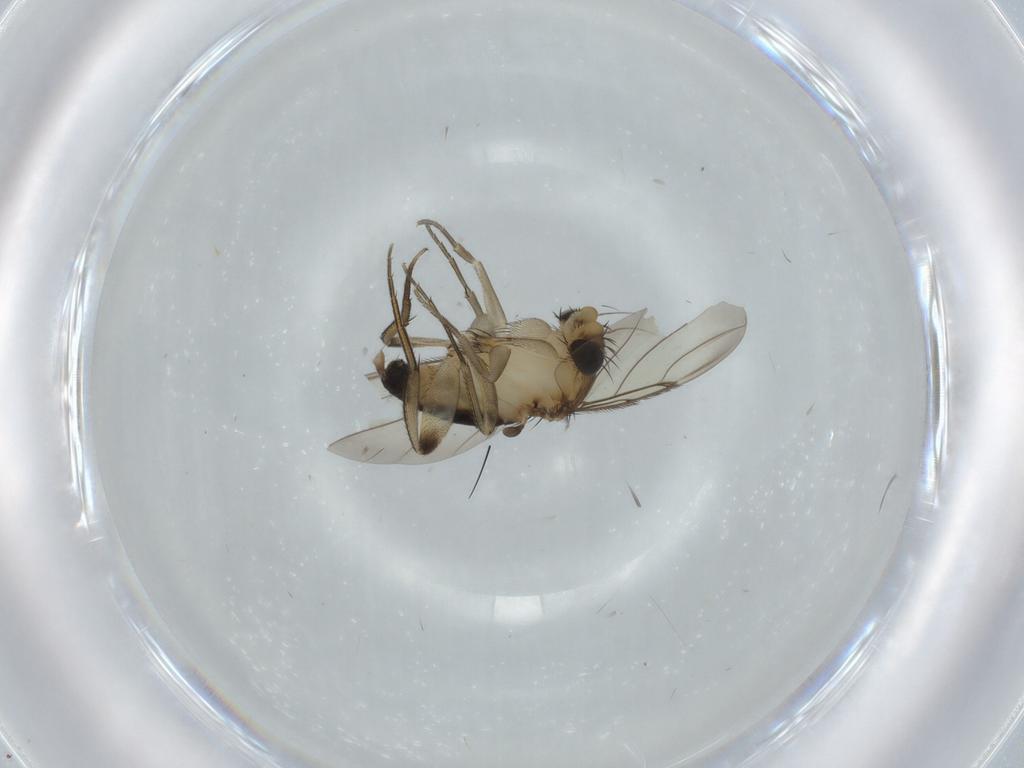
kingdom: Animalia
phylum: Arthropoda
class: Insecta
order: Diptera
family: Phoridae
